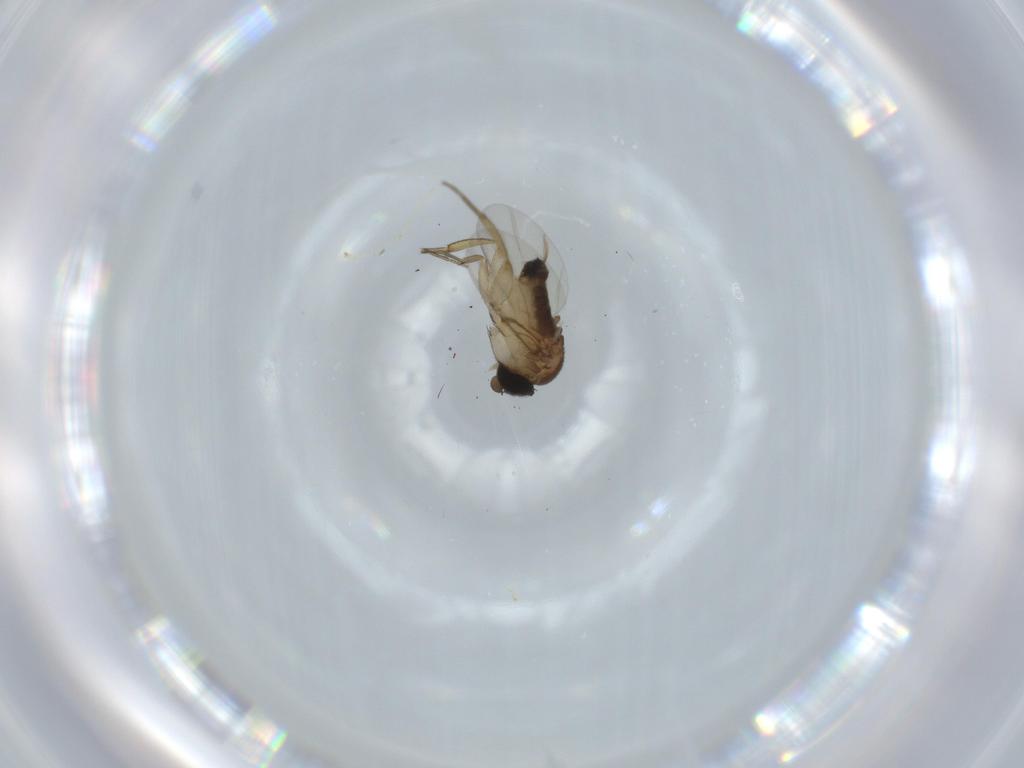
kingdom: Animalia
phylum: Arthropoda
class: Insecta
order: Diptera
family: Phoridae
